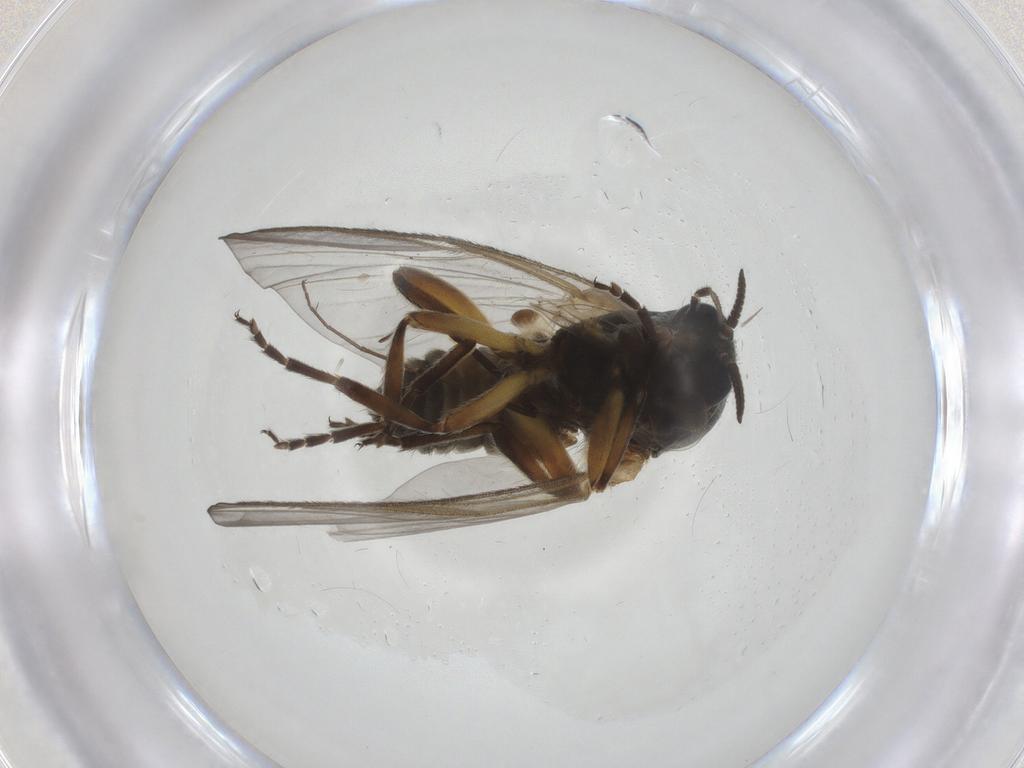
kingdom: Animalia
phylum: Arthropoda
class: Insecta
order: Diptera
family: Simuliidae
